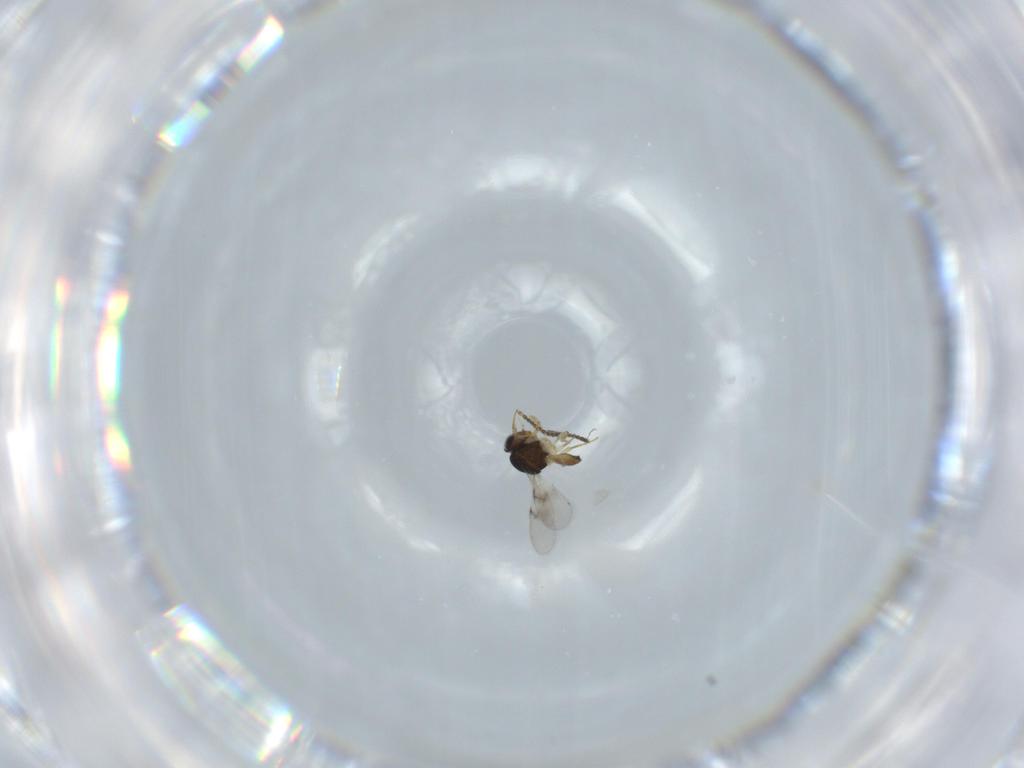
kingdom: Animalia
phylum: Arthropoda
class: Insecta
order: Hymenoptera
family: Scelionidae
